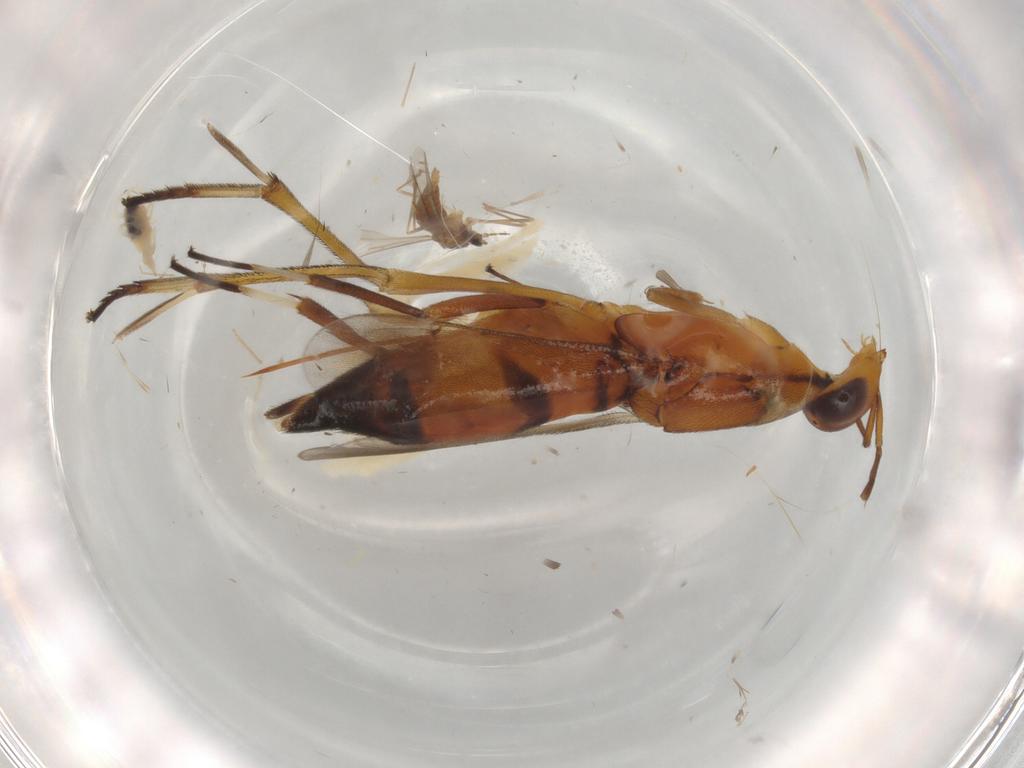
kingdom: Animalia
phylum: Arthropoda
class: Insecta
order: Diptera
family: Cecidomyiidae
